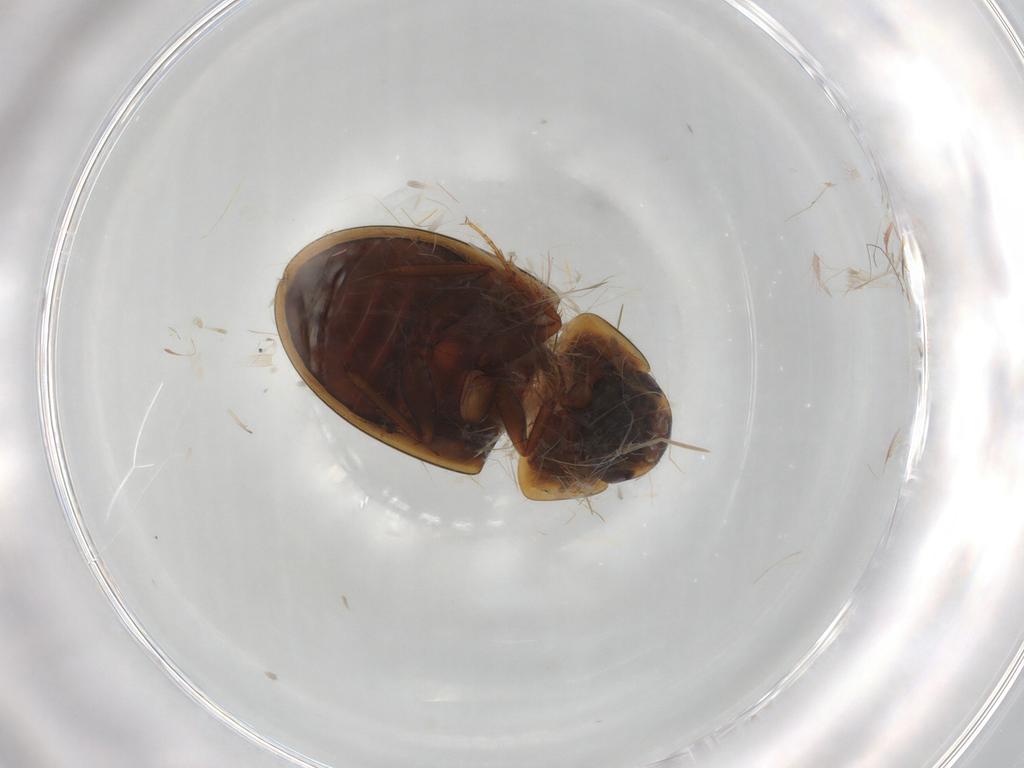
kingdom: Animalia
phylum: Arthropoda
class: Insecta
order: Coleoptera
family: Hydrophilidae
